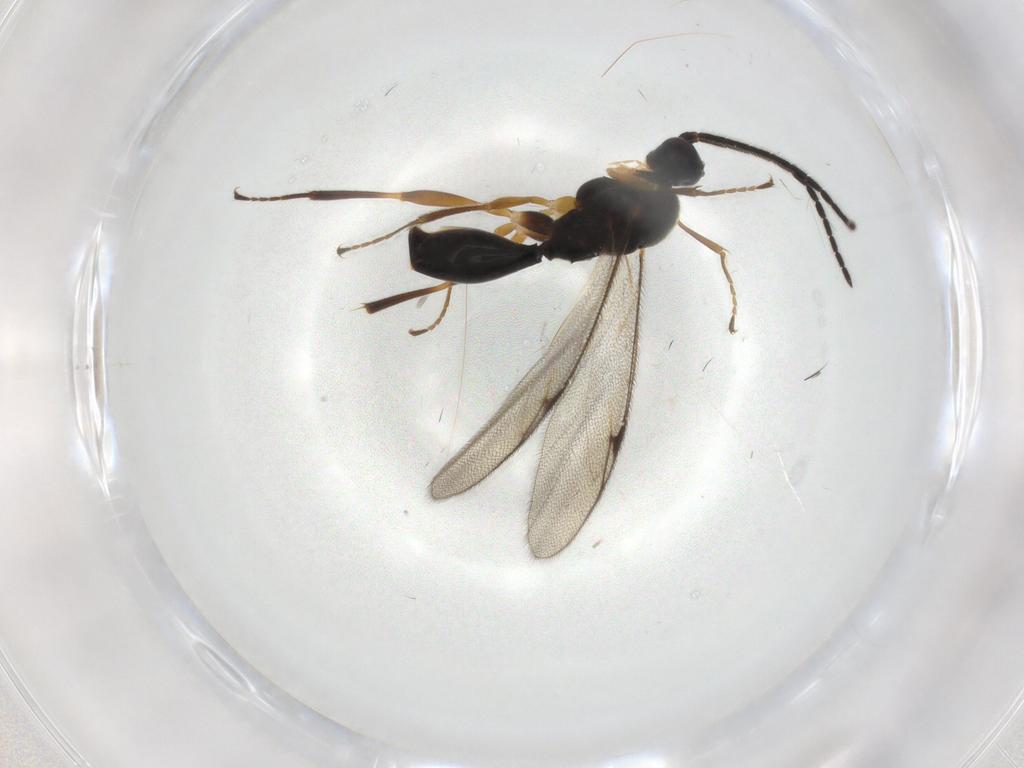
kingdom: Animalia
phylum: Arthropoda
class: Insecta
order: Hymenoptera
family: Proctotrupidae
